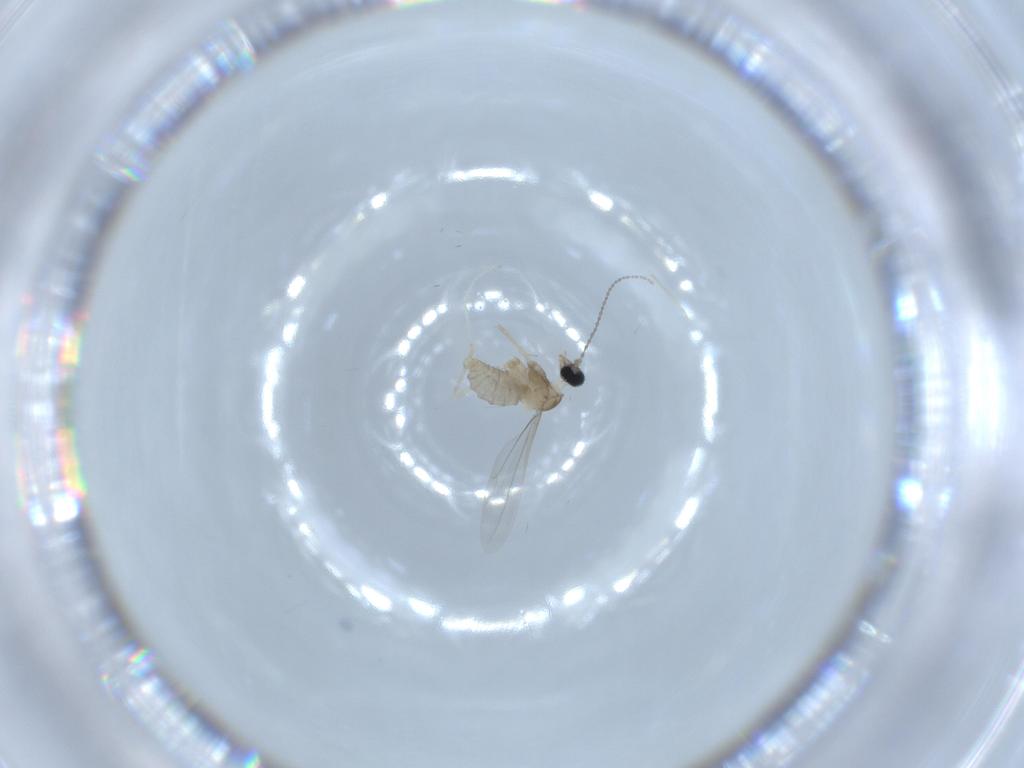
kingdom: Animalia
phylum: Arthropoda
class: Insecta
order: Diptera
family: Cecidomyiidae
